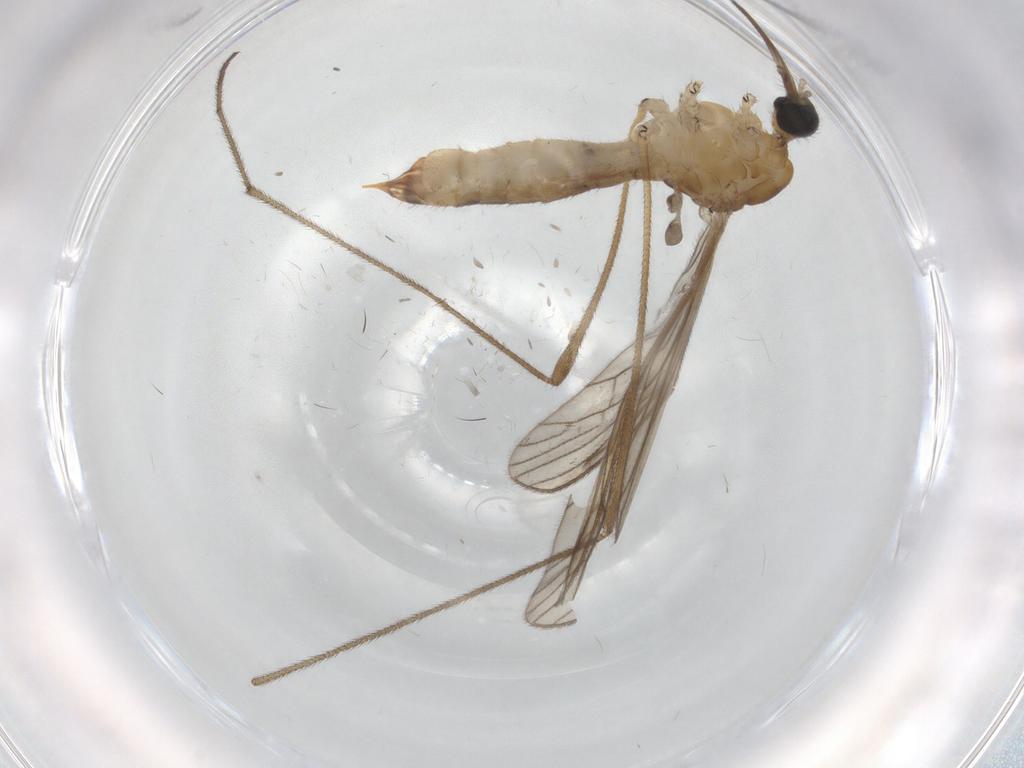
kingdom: Animalia
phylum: Arthropoda
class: Insecta
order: Diptera
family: Limoniidae
